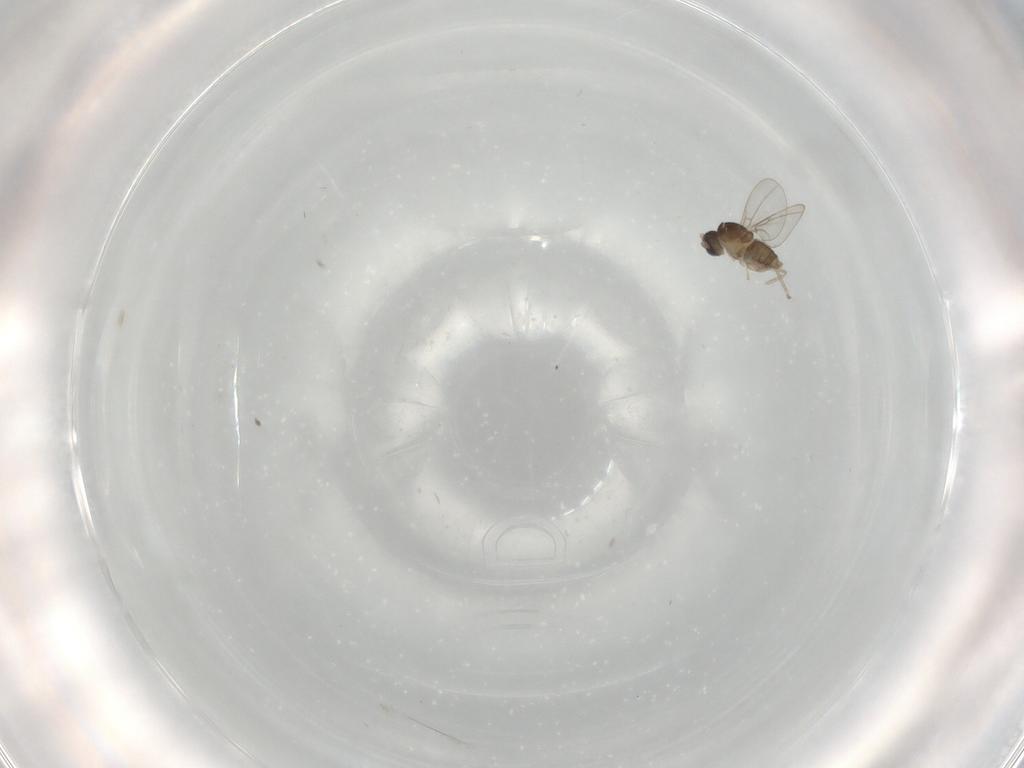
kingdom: Animalia
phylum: Arthropoda
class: Insecta
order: Diptera
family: Cecidomyiidae
